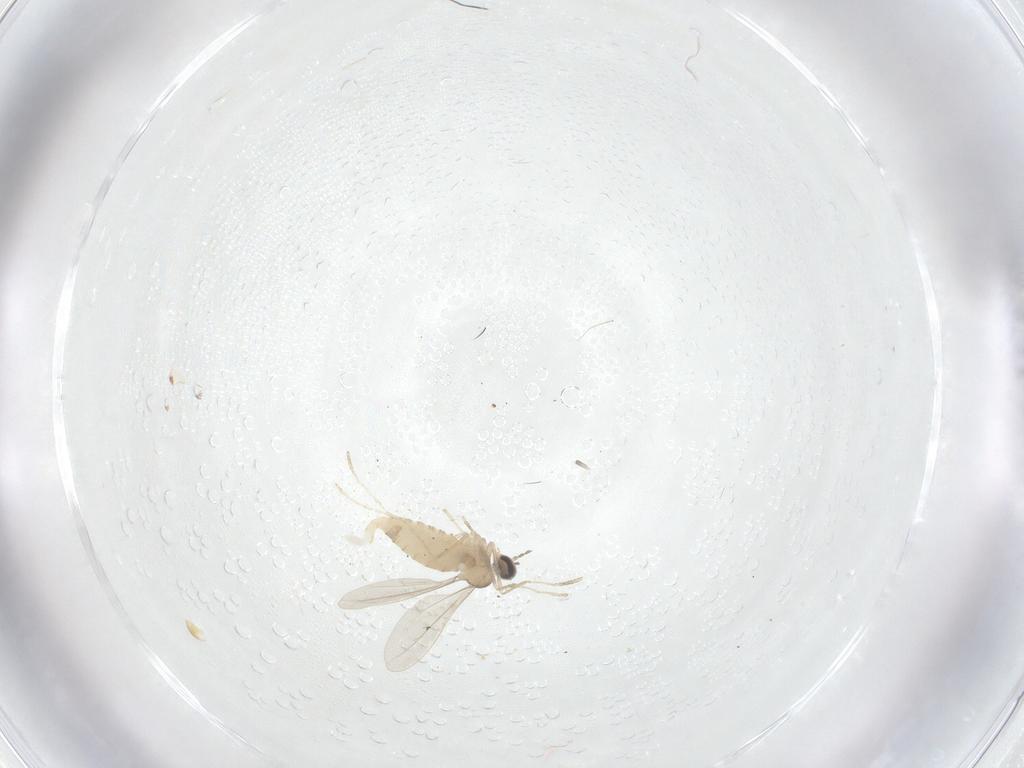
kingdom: Animalia
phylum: Arthropoda
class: Insecta
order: Diptera
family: Cecidomyiidae
